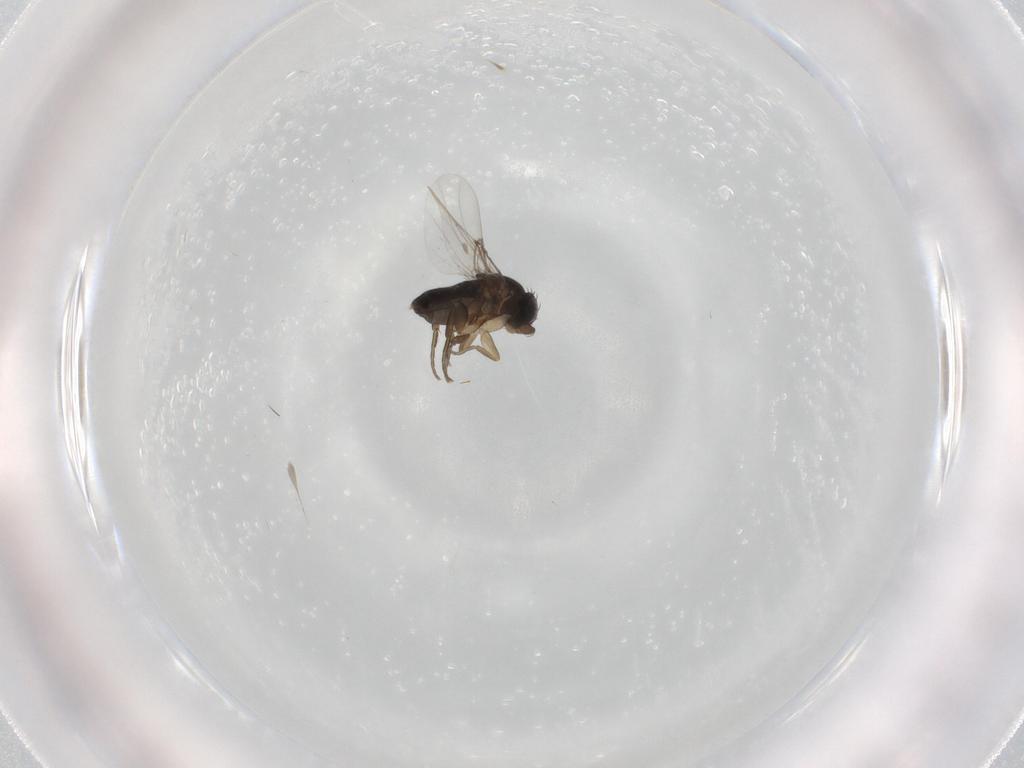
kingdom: Animalia
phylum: Arthropoda
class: Insecta
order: Diptera
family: Phoridae
